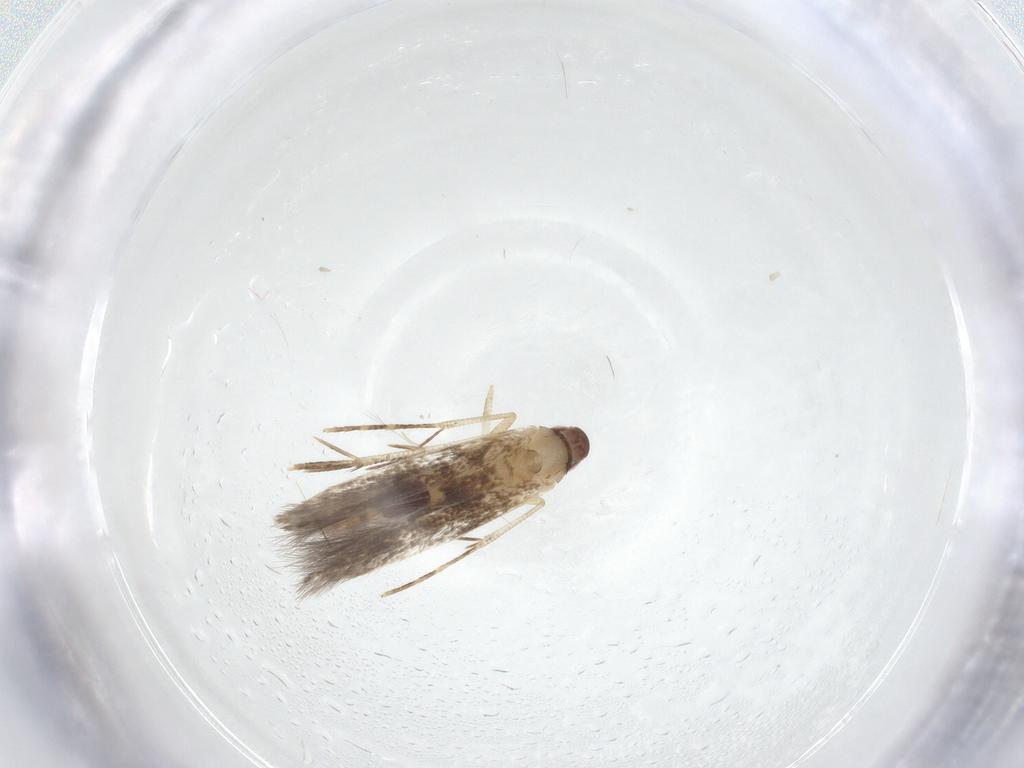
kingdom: Animalia
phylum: Arthropoda
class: Insecta
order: Lepidoptera
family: Cosmopterigidae
